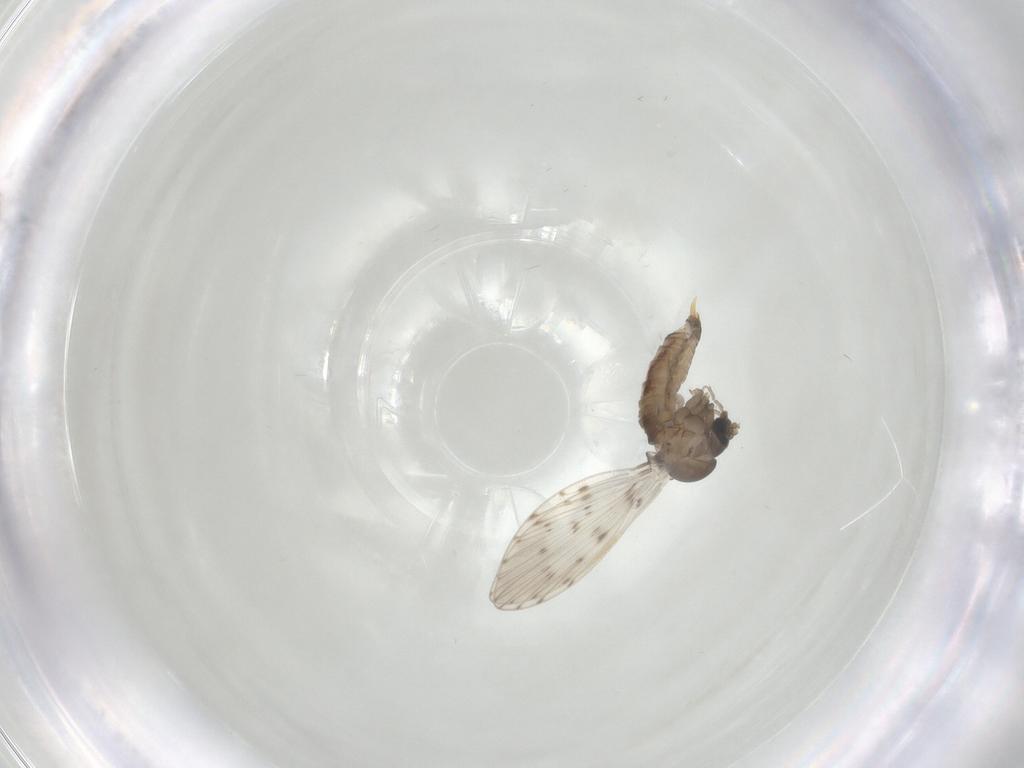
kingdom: Animalia
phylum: Arthropoda
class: Insecta
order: Diptera
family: Psychodidae
